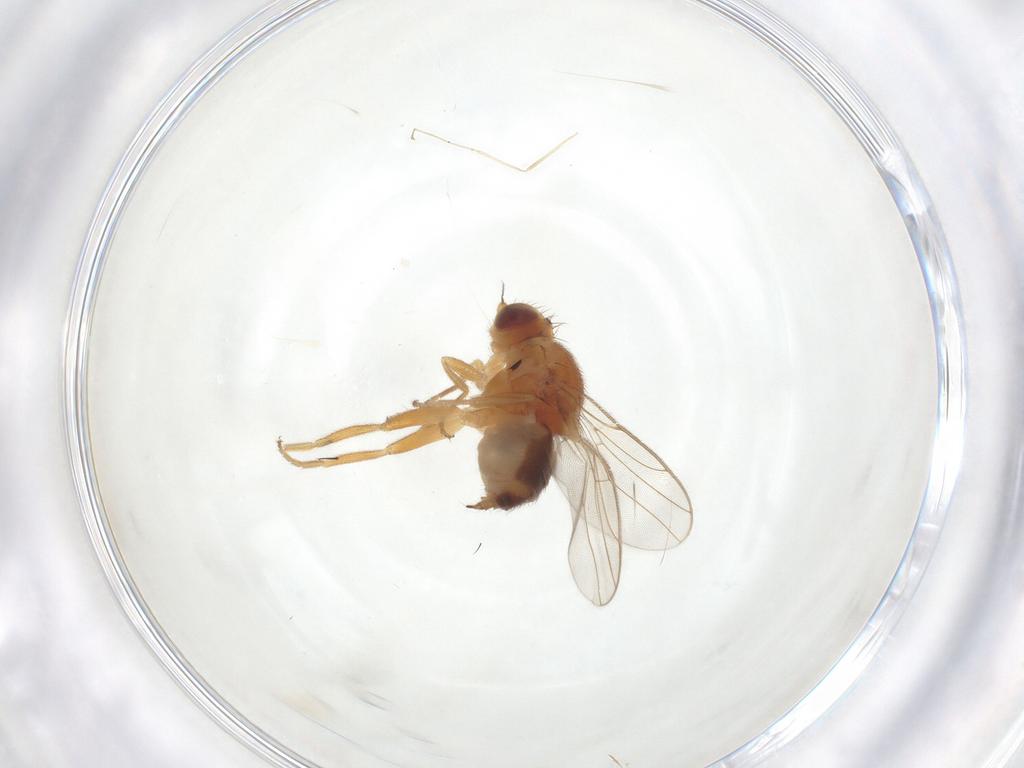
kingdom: Animalia
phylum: Arthropoda
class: Insecta
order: Diptera
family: Chloropidae
